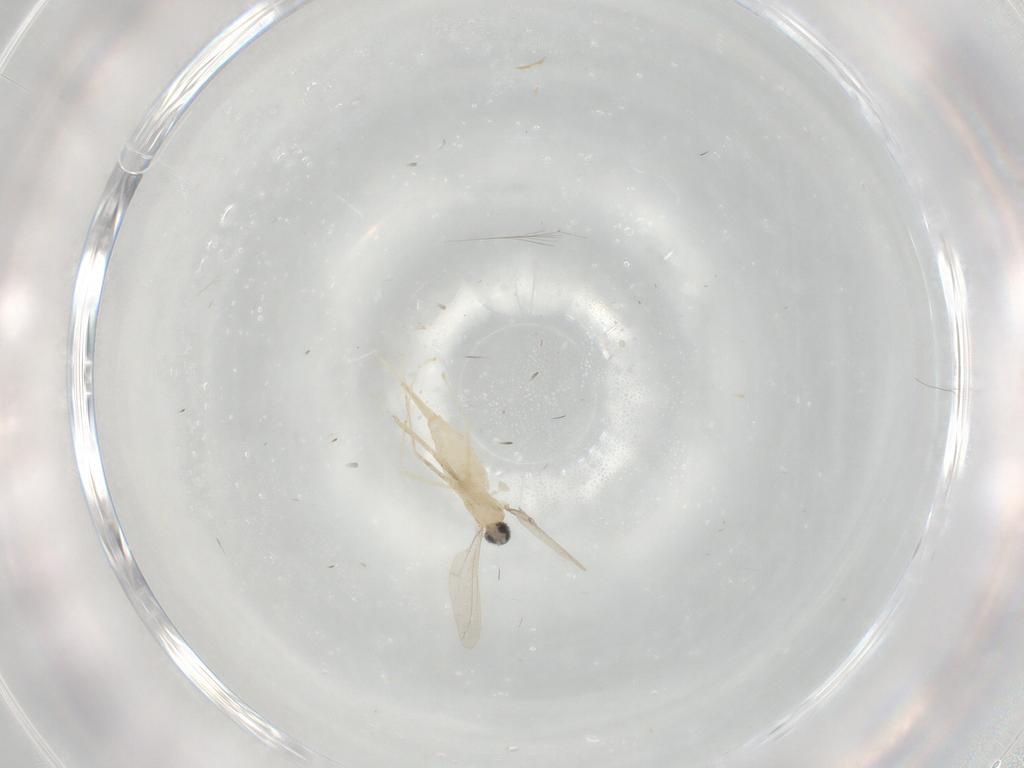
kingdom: Animalia
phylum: Arthropoda
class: Insecta
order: Diptera
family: Cecidomyiidae
